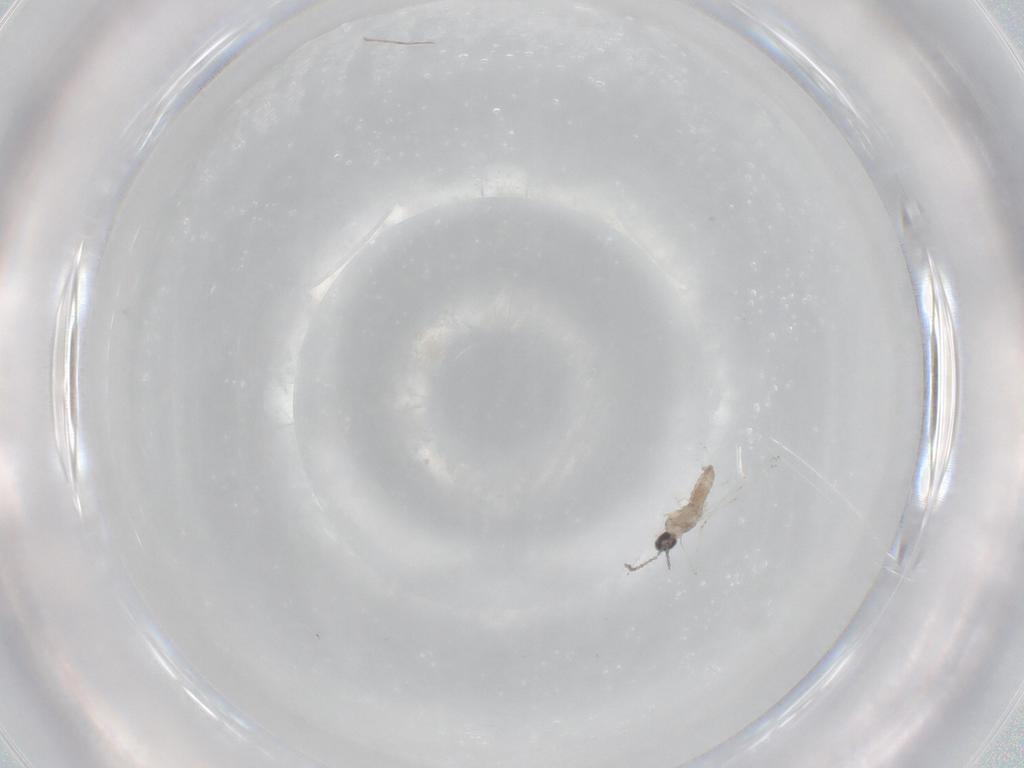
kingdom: Animalia
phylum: Arthropoda
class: Insecta
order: Diptera
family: Cecidomyiidae
